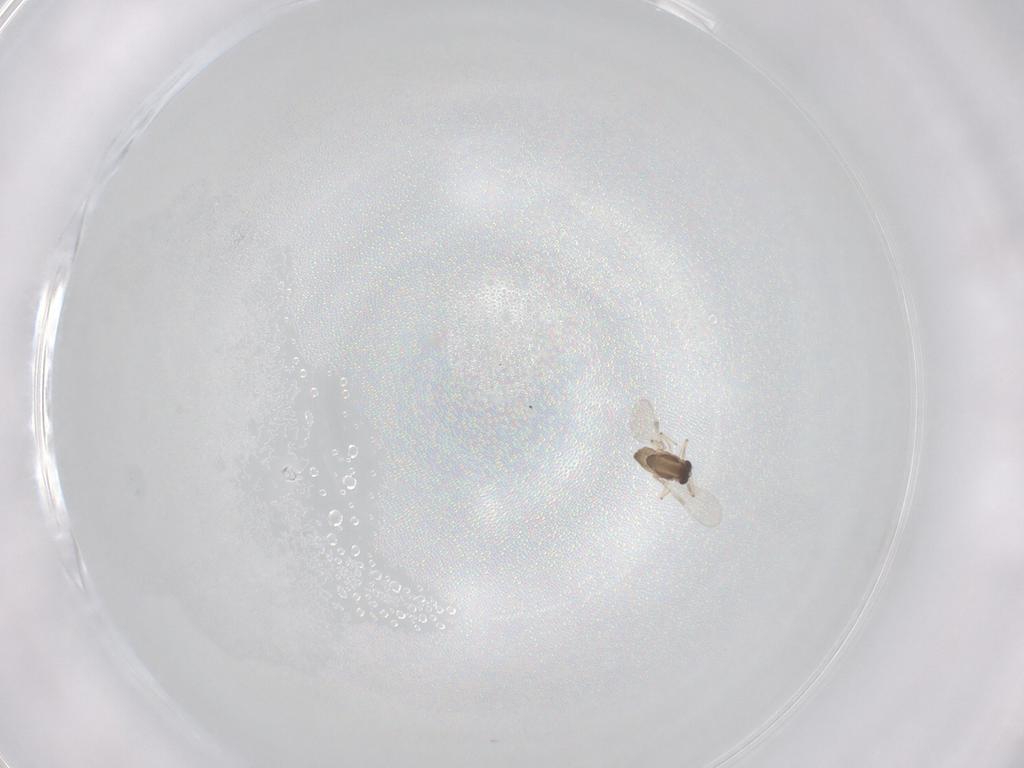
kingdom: Animalia
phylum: Arthropoda
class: Insecta
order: Diptera
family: Chironomidae
